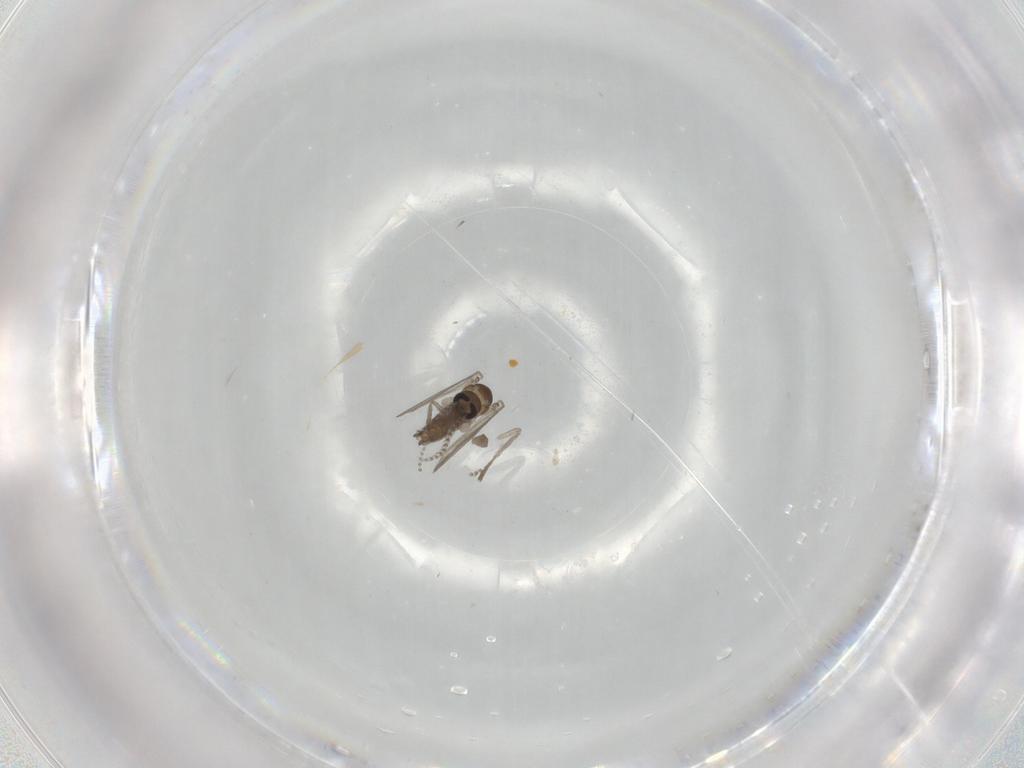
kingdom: Animalia
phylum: Arthropoda
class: Insecta
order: Diptera
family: Psychodidae
